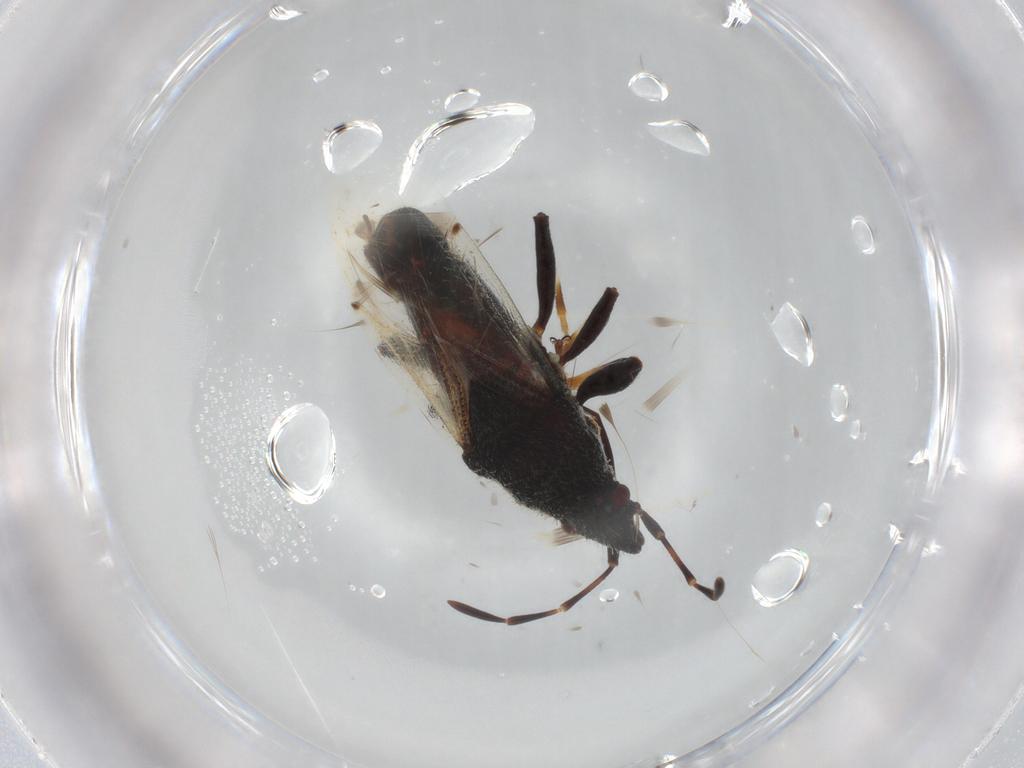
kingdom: Animalia
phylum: Arthropoda
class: Insecta
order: Hemiptera
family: Oxycarenidae
